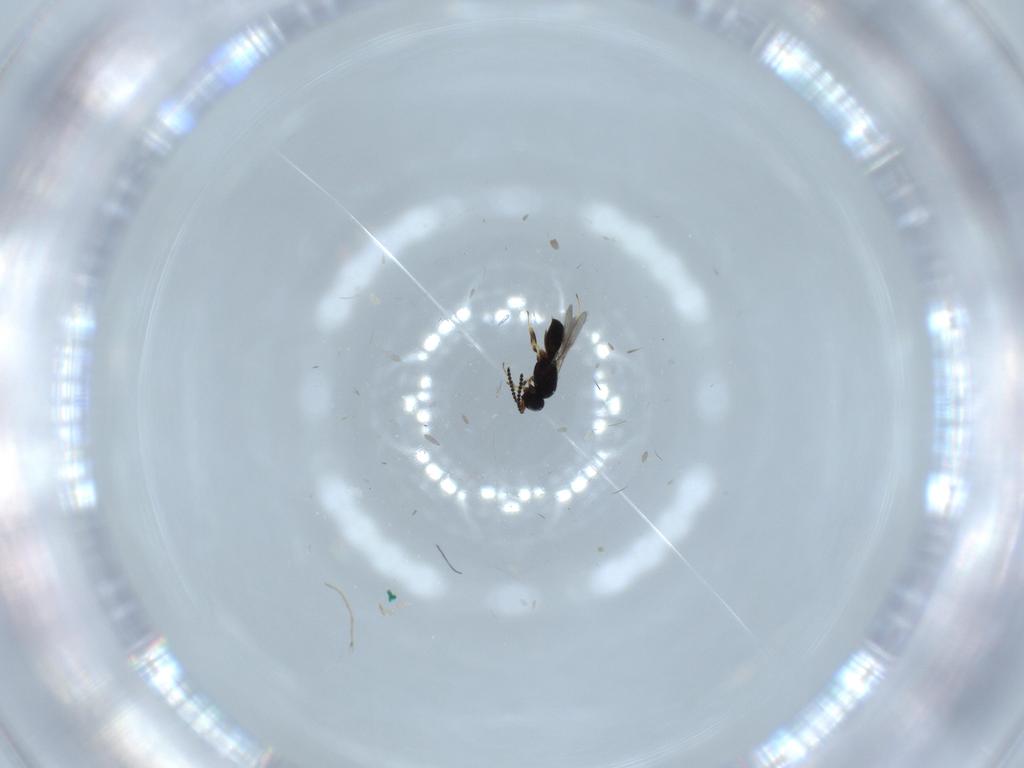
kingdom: Animalia
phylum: Arthropoda
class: Insecta
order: Hymenoptera
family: Scelionidae
